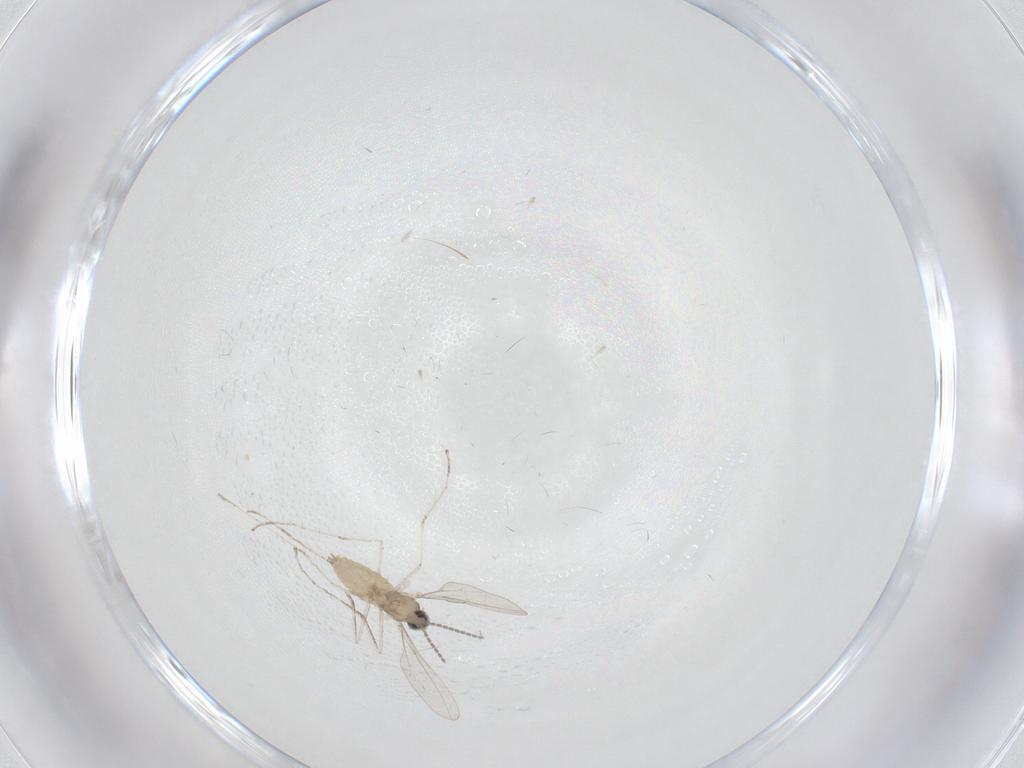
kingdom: Animalia
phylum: Arthropoda
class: Insecta
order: Diptera
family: Cecidomyiidae
